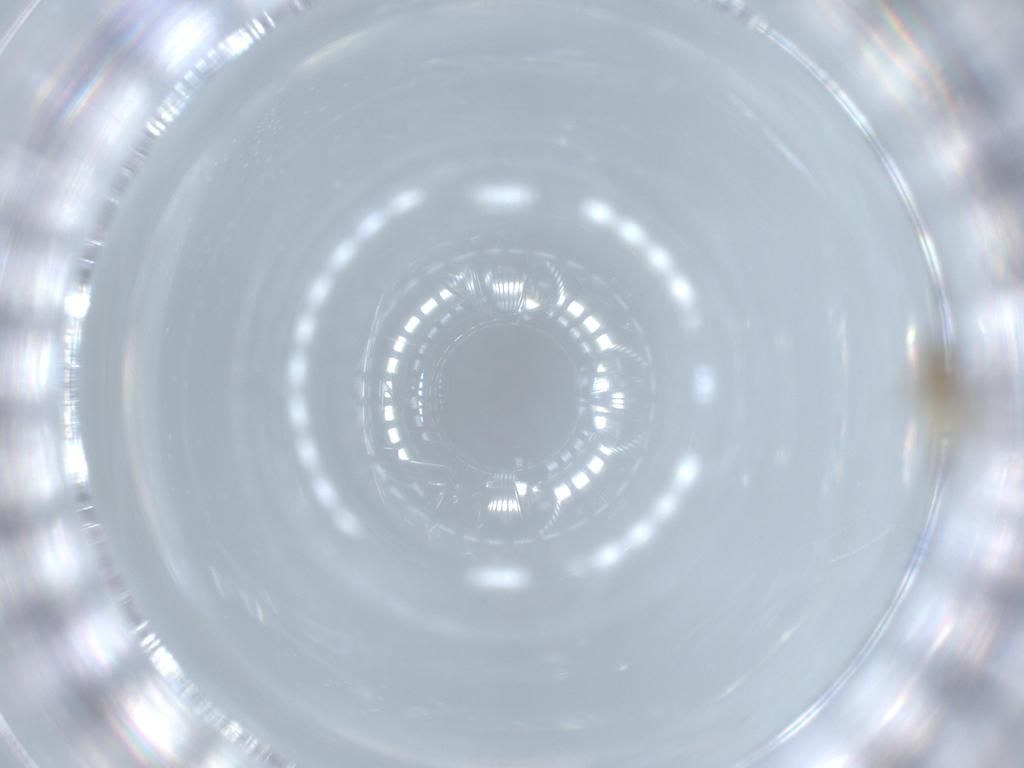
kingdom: Animalia
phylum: Arthropoda
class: Insecta
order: Diptera
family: Cecidomyiidae
